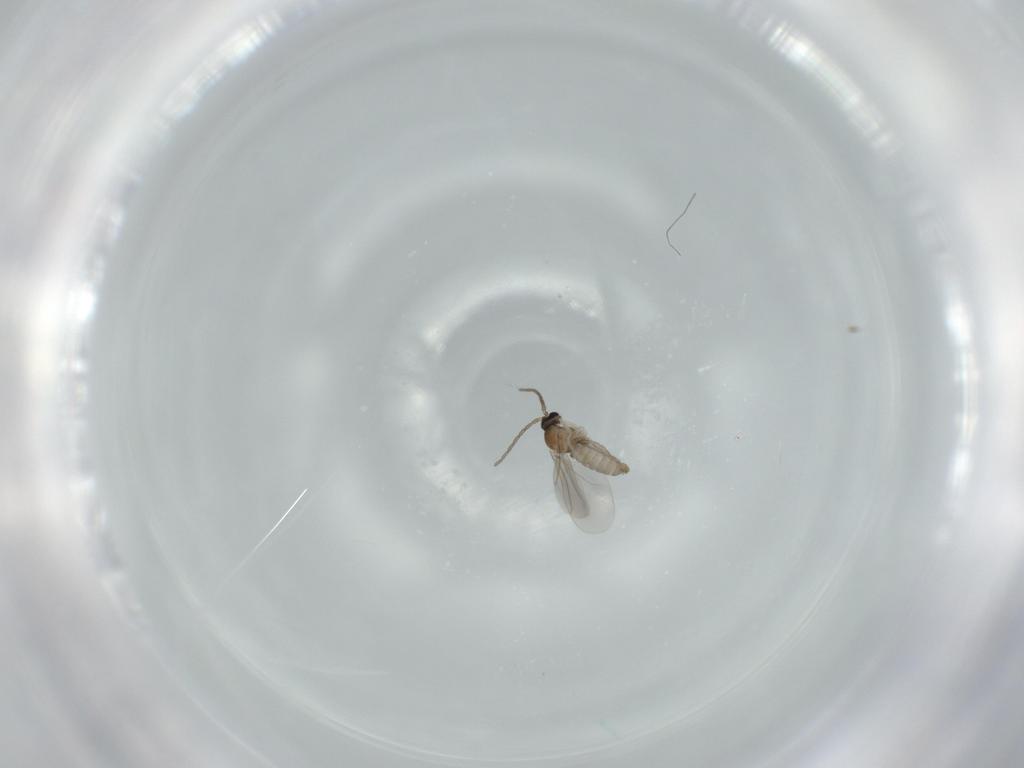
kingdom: Animalia
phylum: Arthropoda
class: Insecta
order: Diptera
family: Cecidomyiidae
